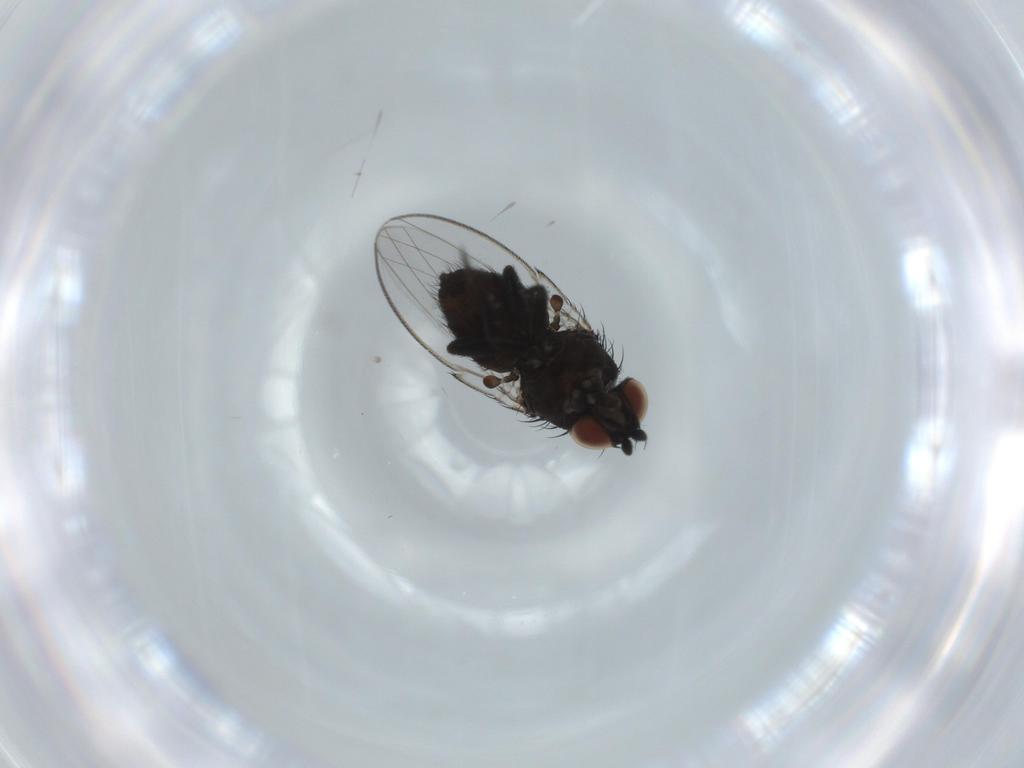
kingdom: Animalia
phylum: Arthropoda
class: Insecta
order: Diptera
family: Milichiidae
